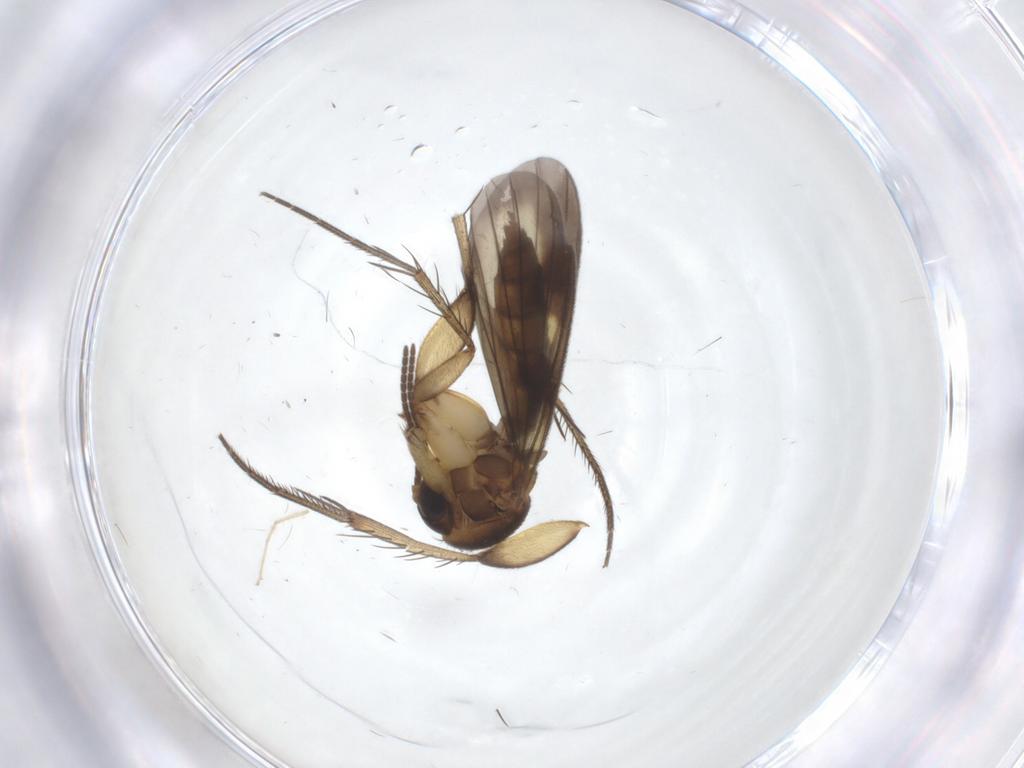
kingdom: Animalia
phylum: Arthropoda
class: Insecta
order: Diptera
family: Mycetophilidae
